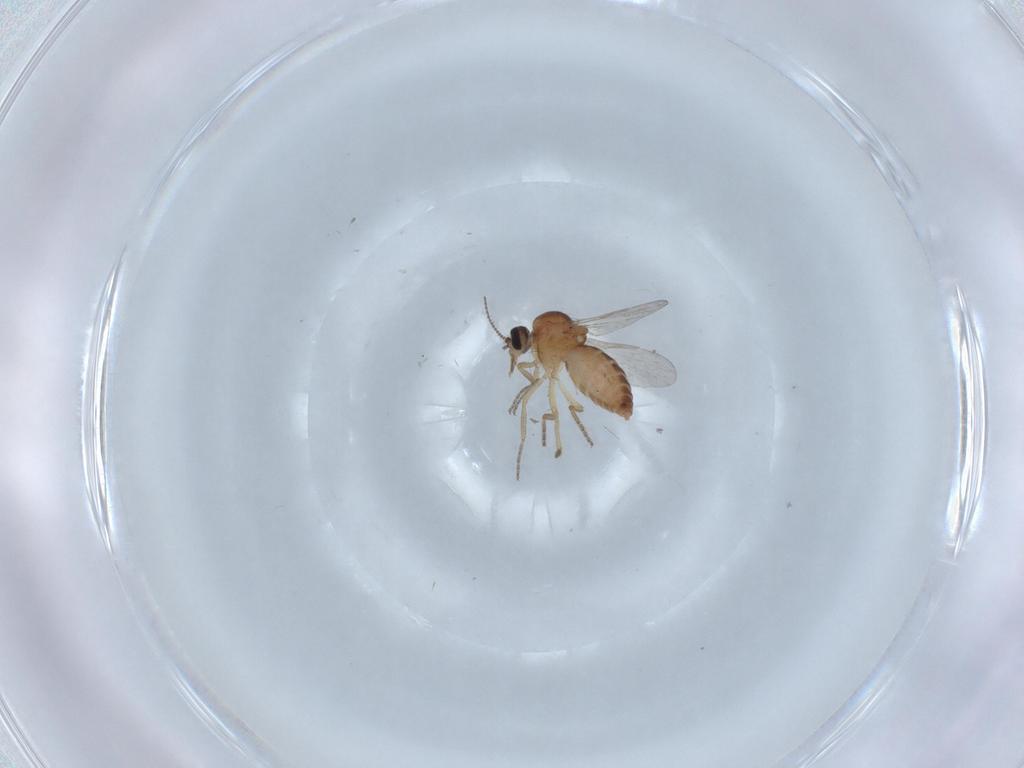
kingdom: Animalia
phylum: Arthropoda
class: Insecta
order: Diptera
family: Ceratopogonidae
